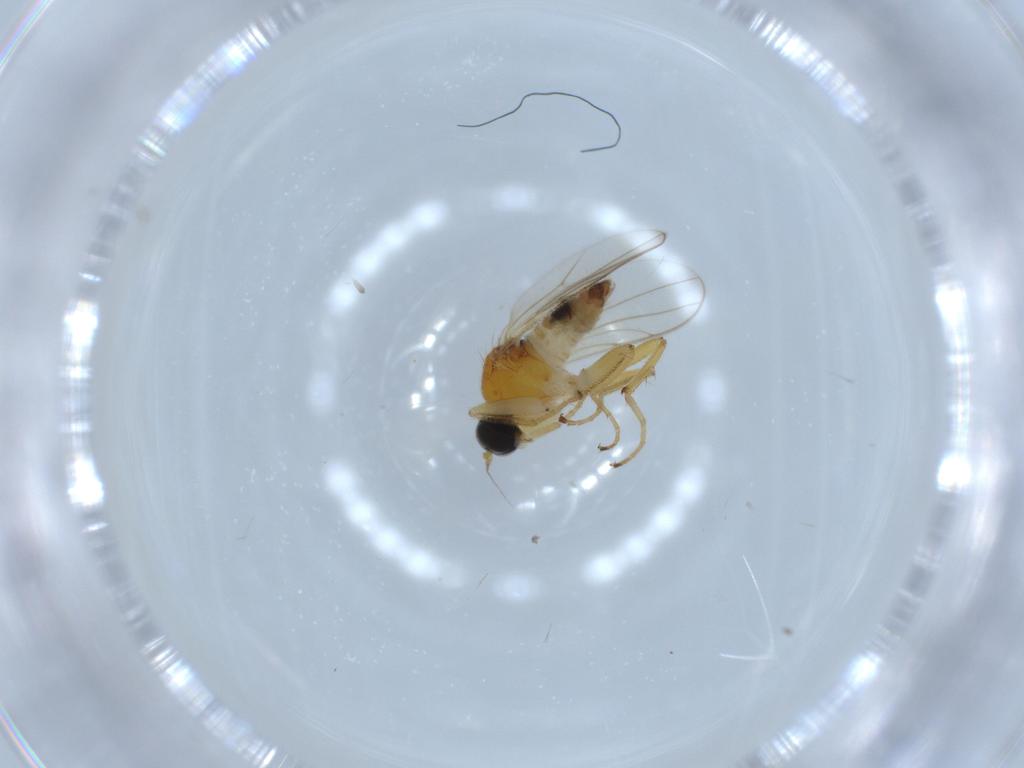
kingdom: Animalia
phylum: Arthropoda
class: Insecta
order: Diptera
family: Hybotidae
